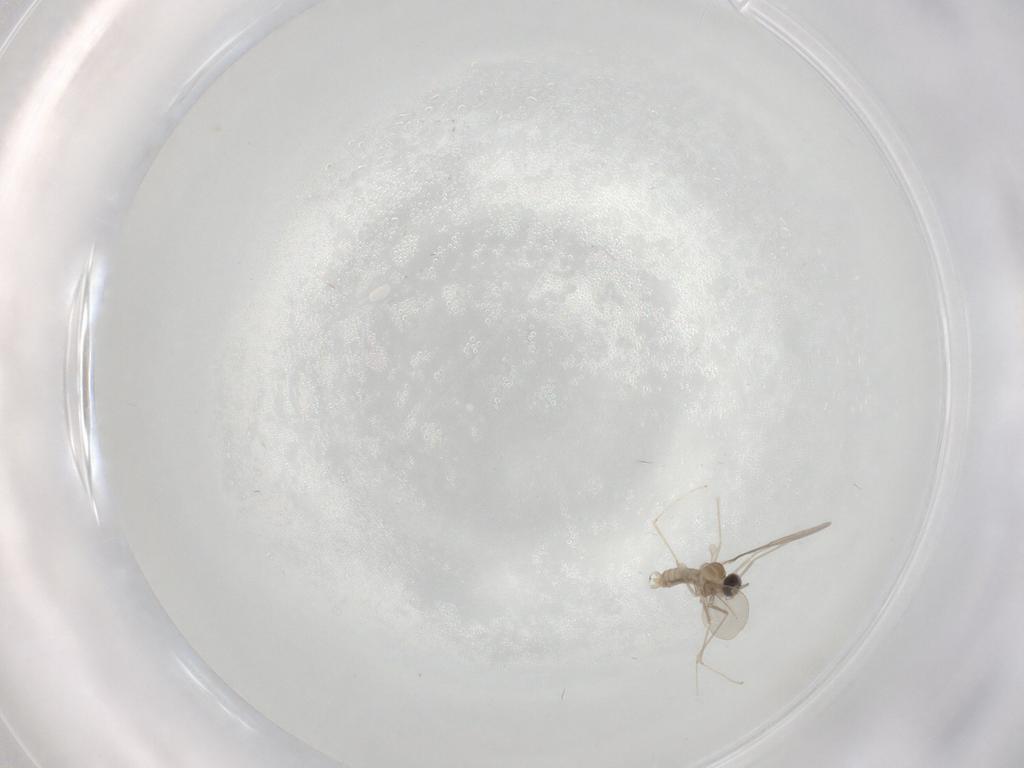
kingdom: Animalia
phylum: Arthropoda
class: Insecta
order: Diptera
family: Cecidomyiidae
